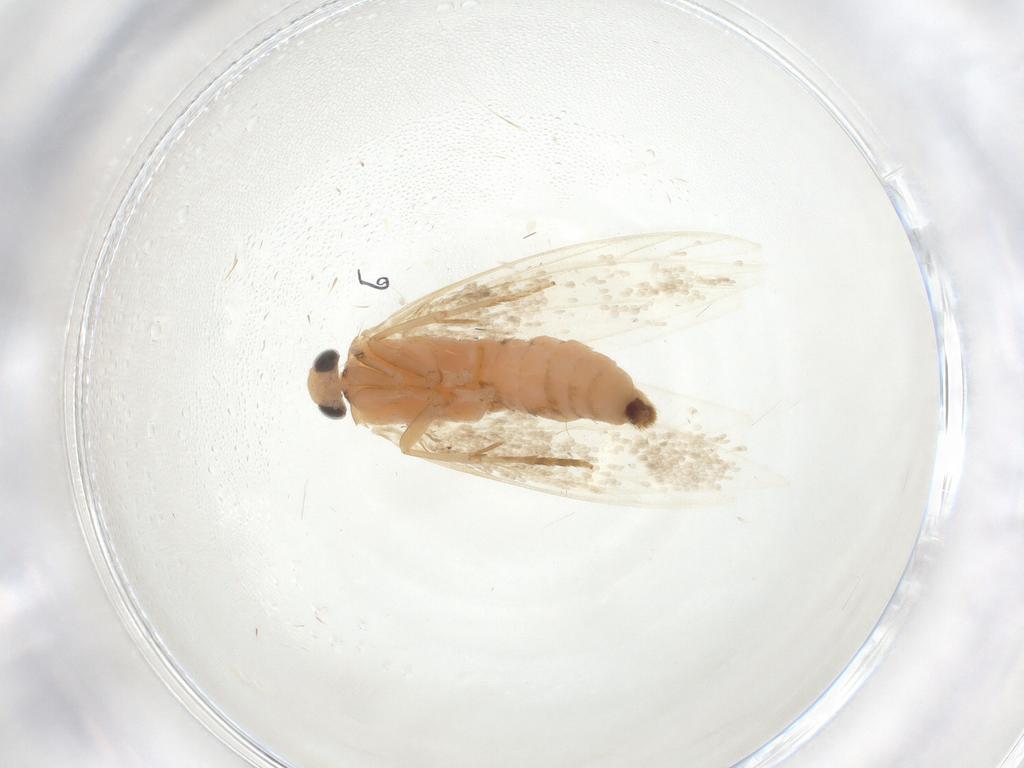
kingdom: Animalia
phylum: Arthropoda
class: Insecta
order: Lepidoptera
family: Tineidae
